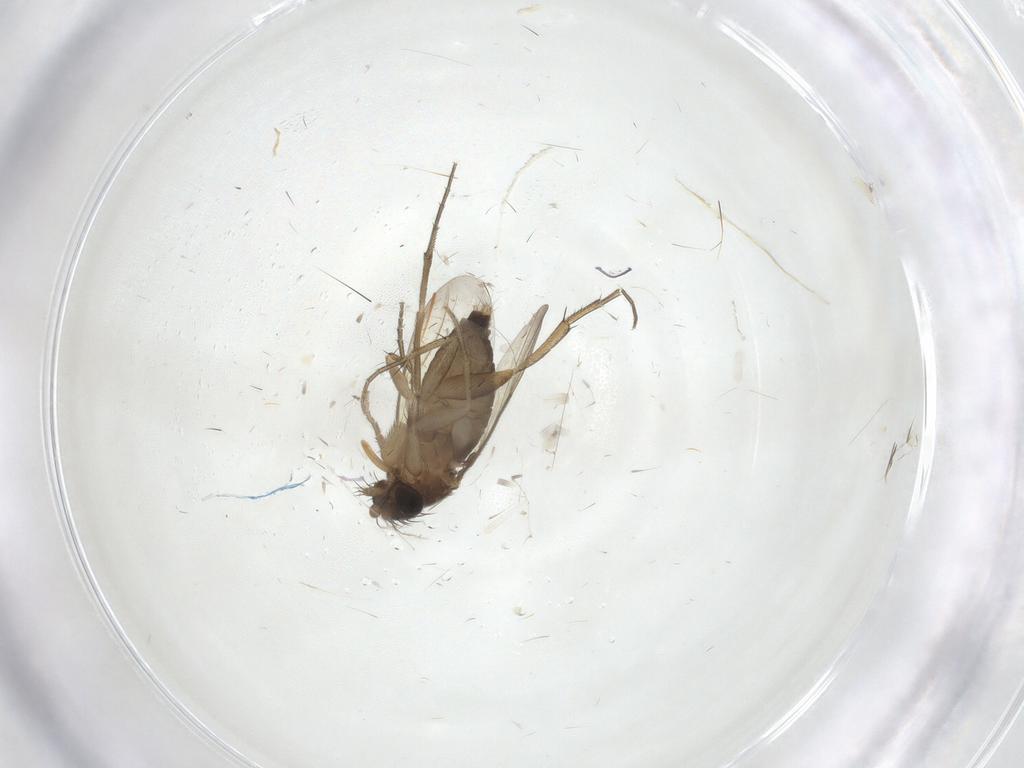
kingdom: Animalia
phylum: Arthropoda
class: Insecta
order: Diptera
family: Cecidomyiidae
